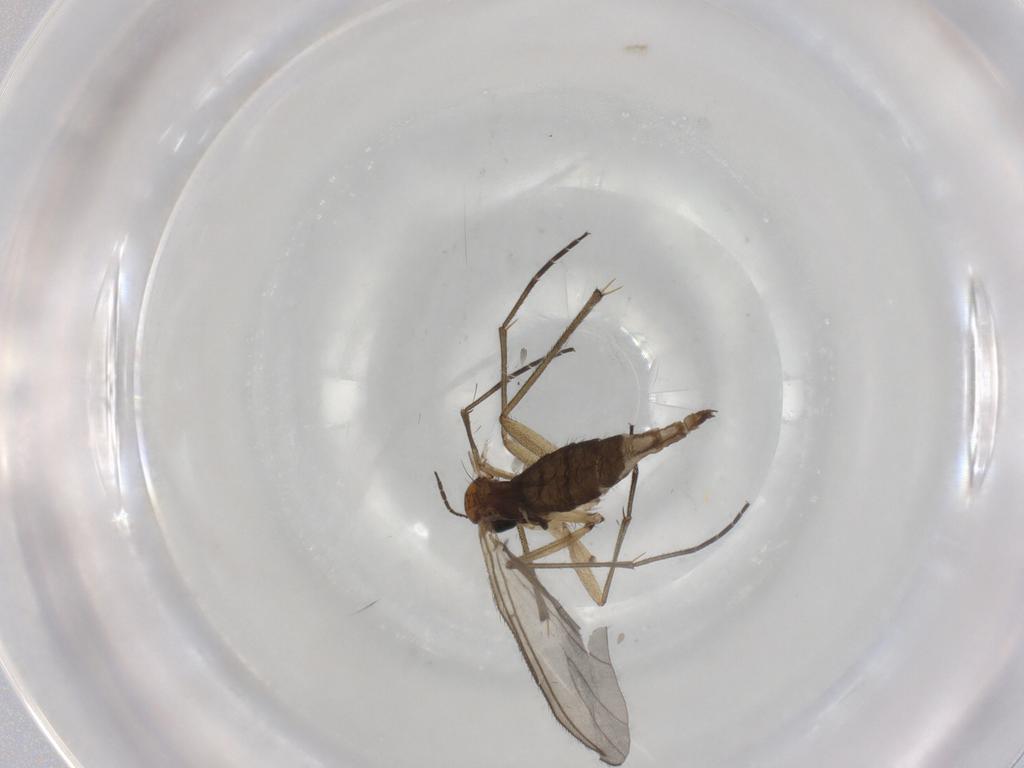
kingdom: Animalia
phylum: Arthropoda
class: Insecta
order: Diptera
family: Sciaridae
